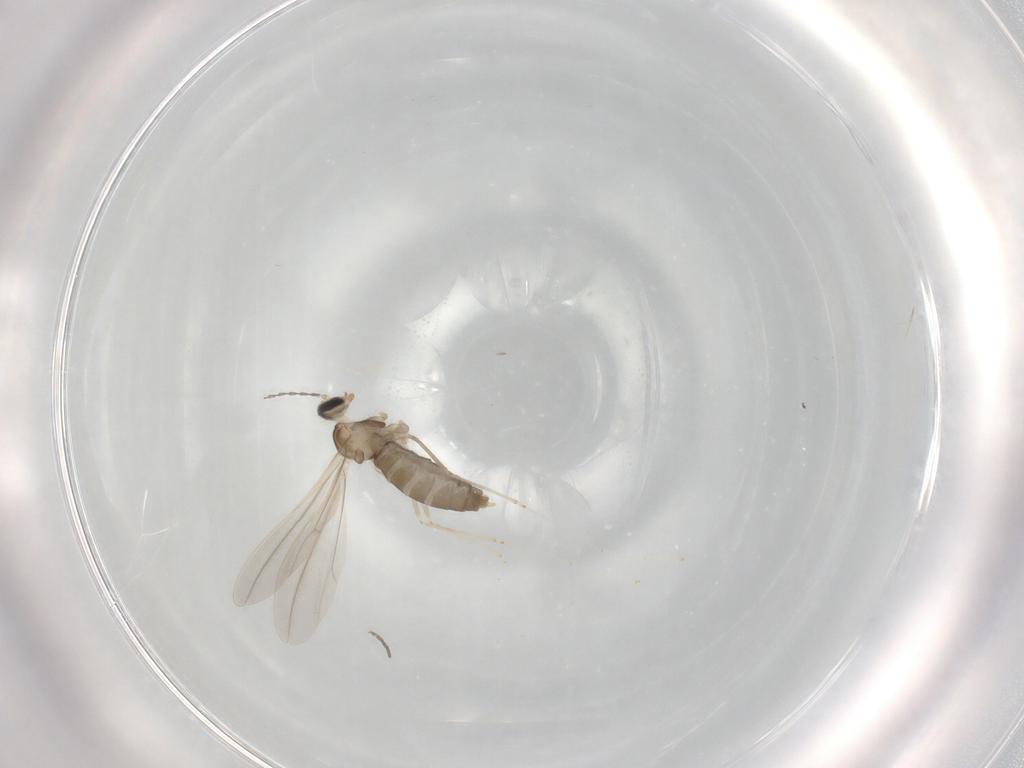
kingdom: Animalia
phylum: Arthropoda
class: Insecta
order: Diptera
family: Cecidomyiidae
